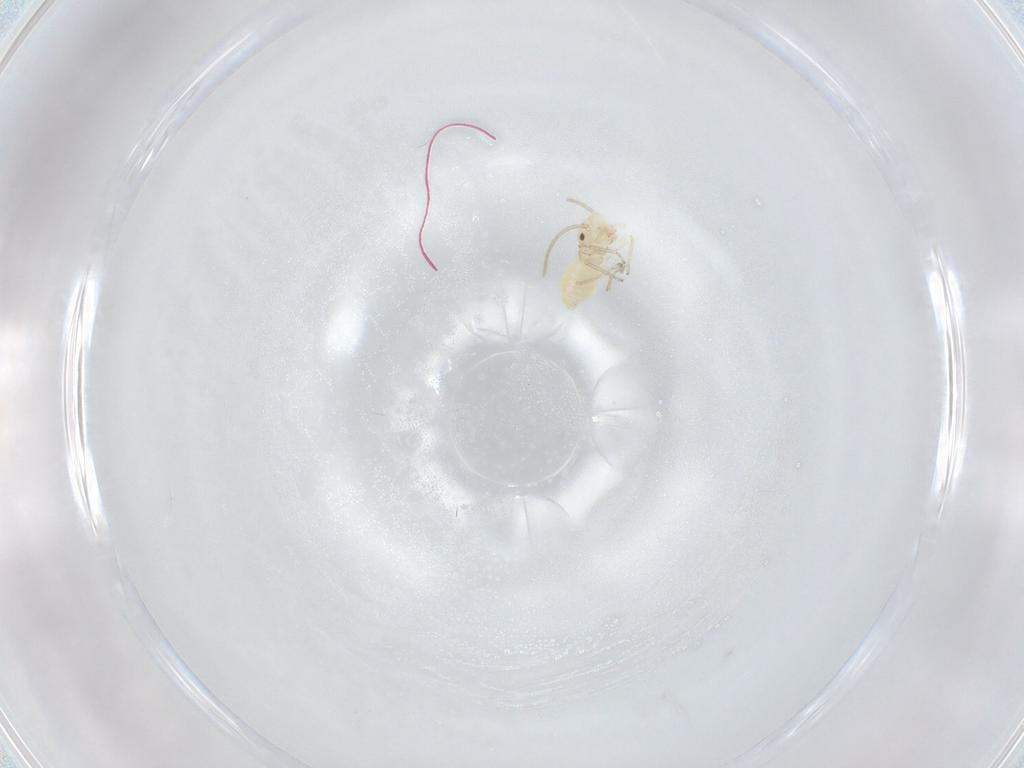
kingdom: Animalia
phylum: Arthropoda
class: Insecta
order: Psocodea
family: Caeciliusidae
